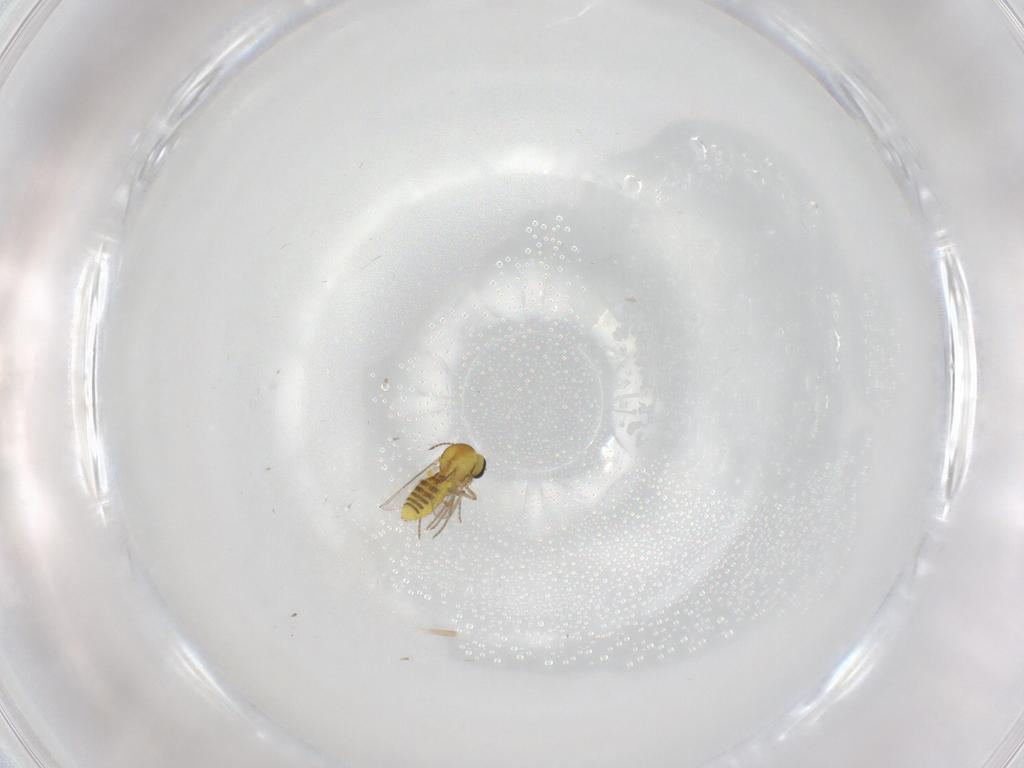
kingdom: Animalia
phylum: Arthropoda
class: Insecta
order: Diptera
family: Ceratopogonidae
